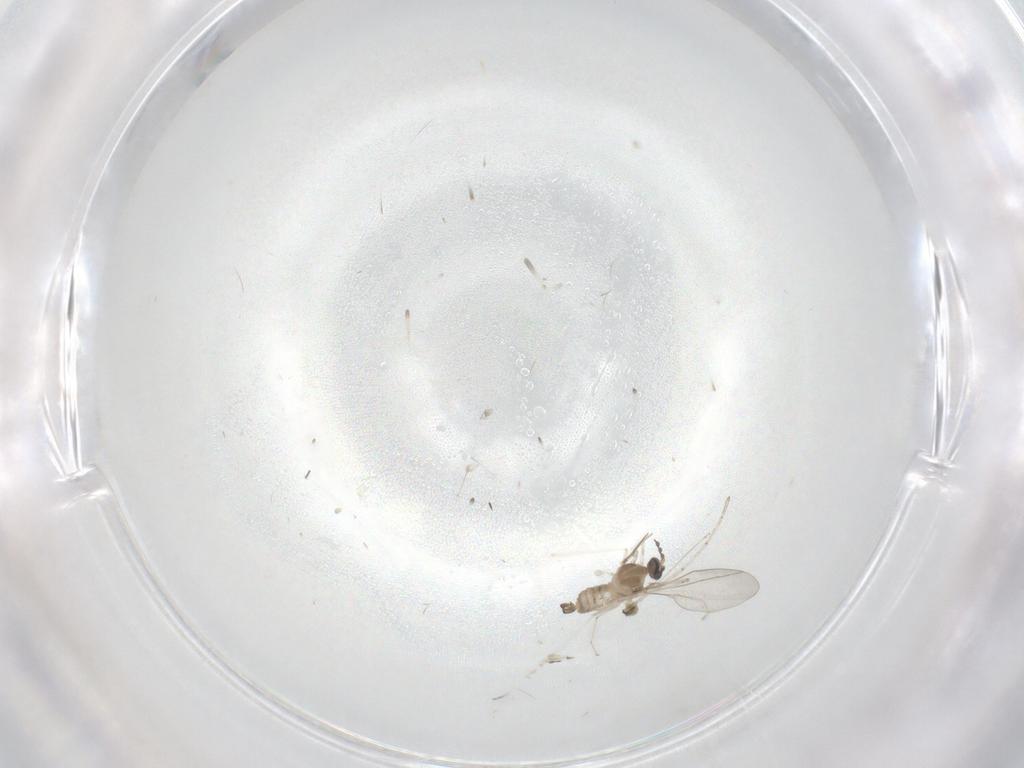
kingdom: Animalia
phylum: Arthropoda
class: Insecta
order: Diptera
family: Cecidomyiidae
